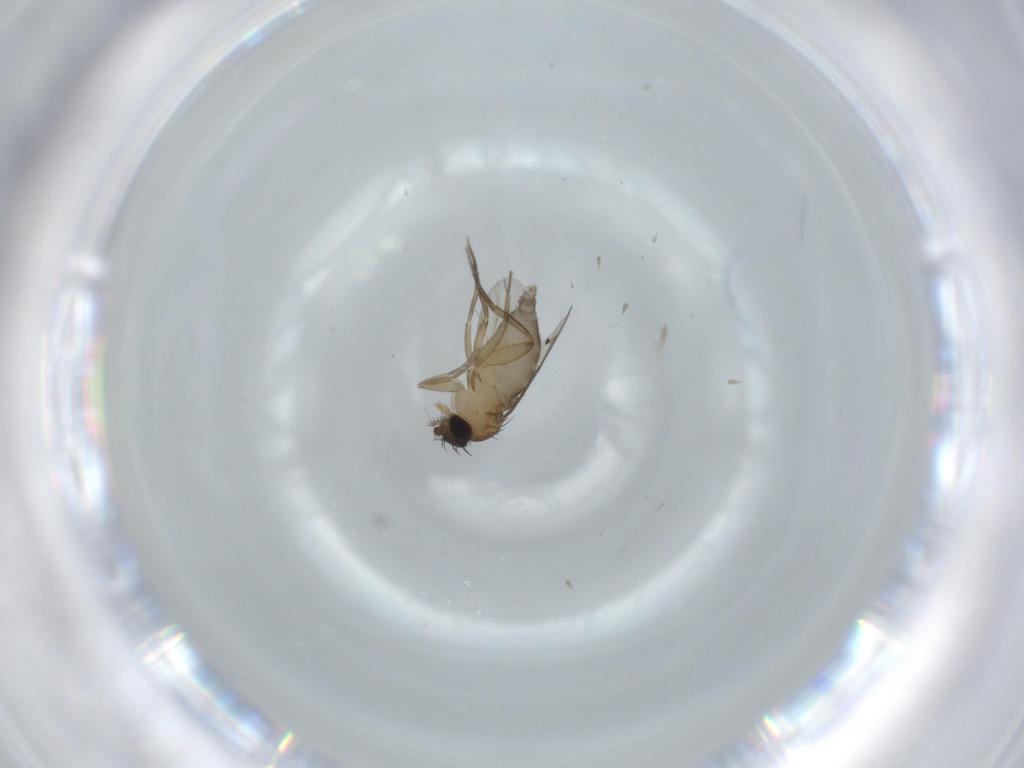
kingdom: Animalia
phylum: Arthropoda
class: Insecta
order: Diptera
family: Phoridae
